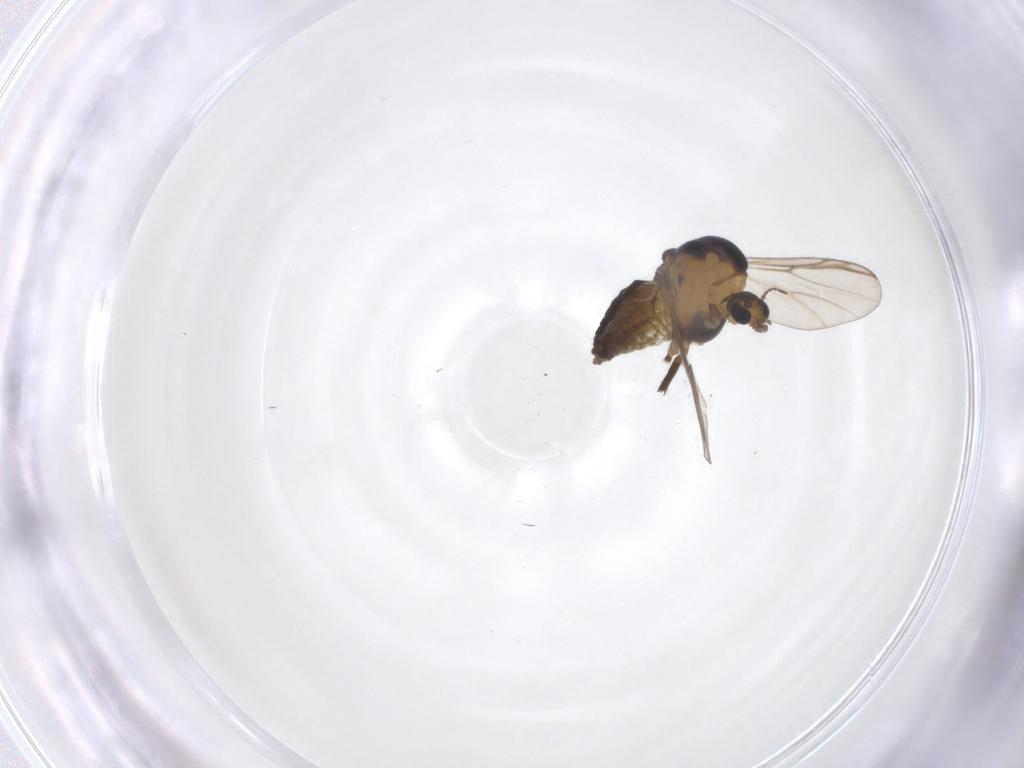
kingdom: Animalia
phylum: Arthropoda
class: Insecta
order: Diptera
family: Chironomidae
